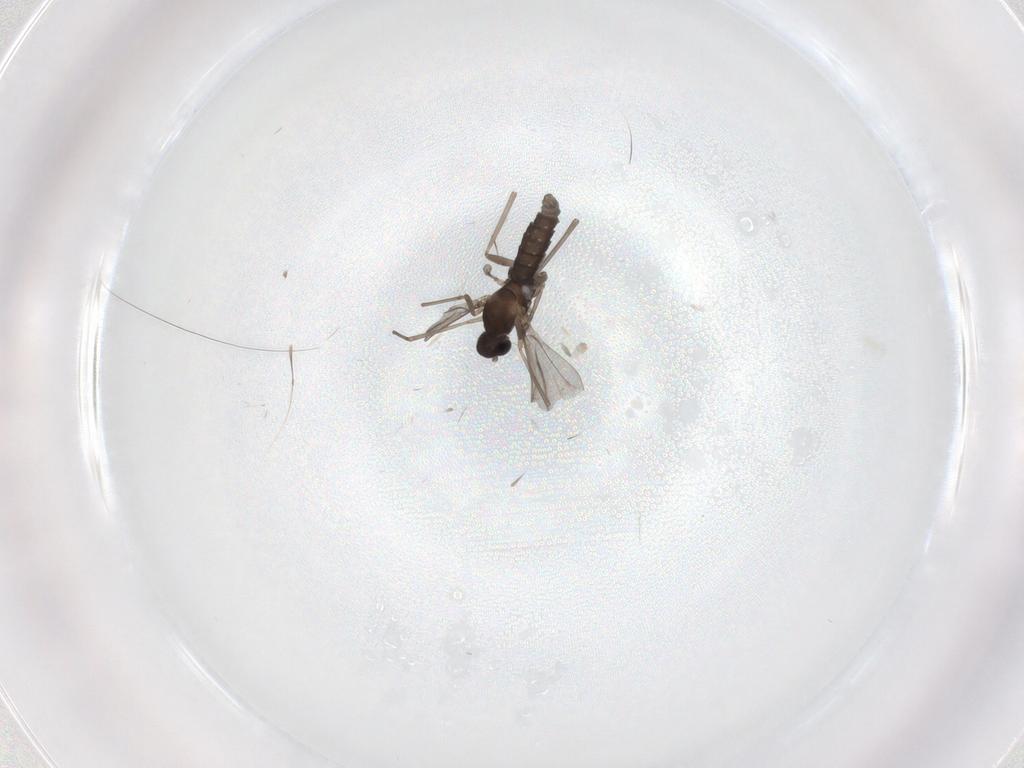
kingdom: Animalia
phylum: Arthropoda
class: Insecta
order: Diptera
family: Cecidomyiidae
